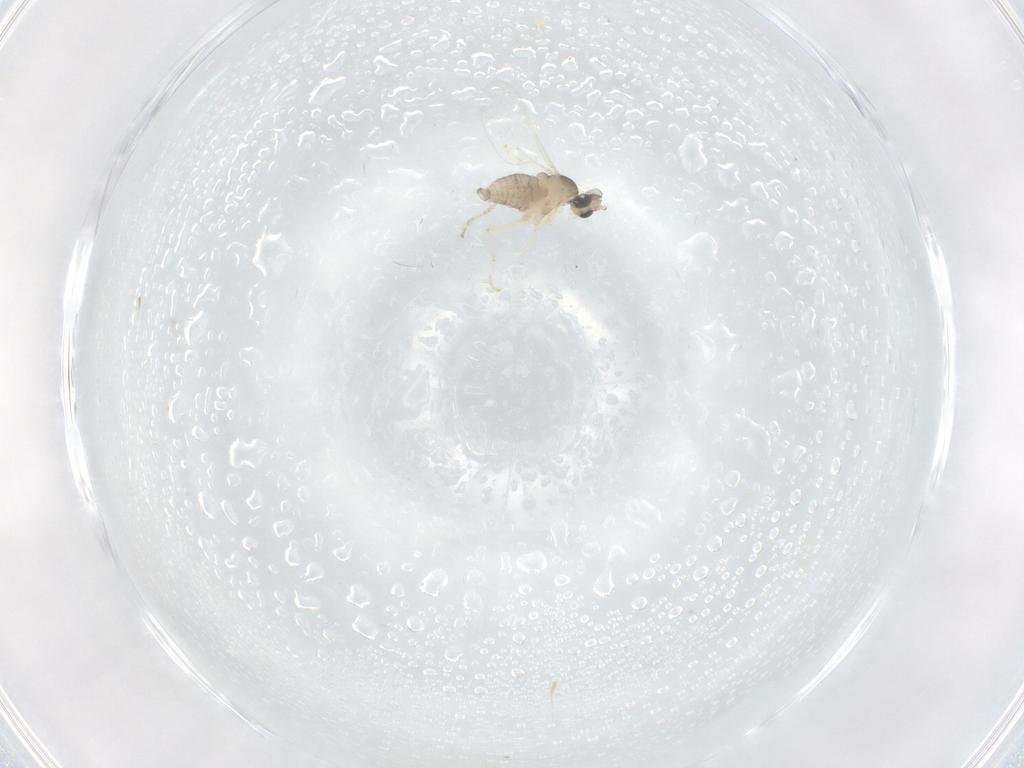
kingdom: Animalia
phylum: Arthropoda
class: Insecta
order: Diptera
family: Cecidomyiidae
